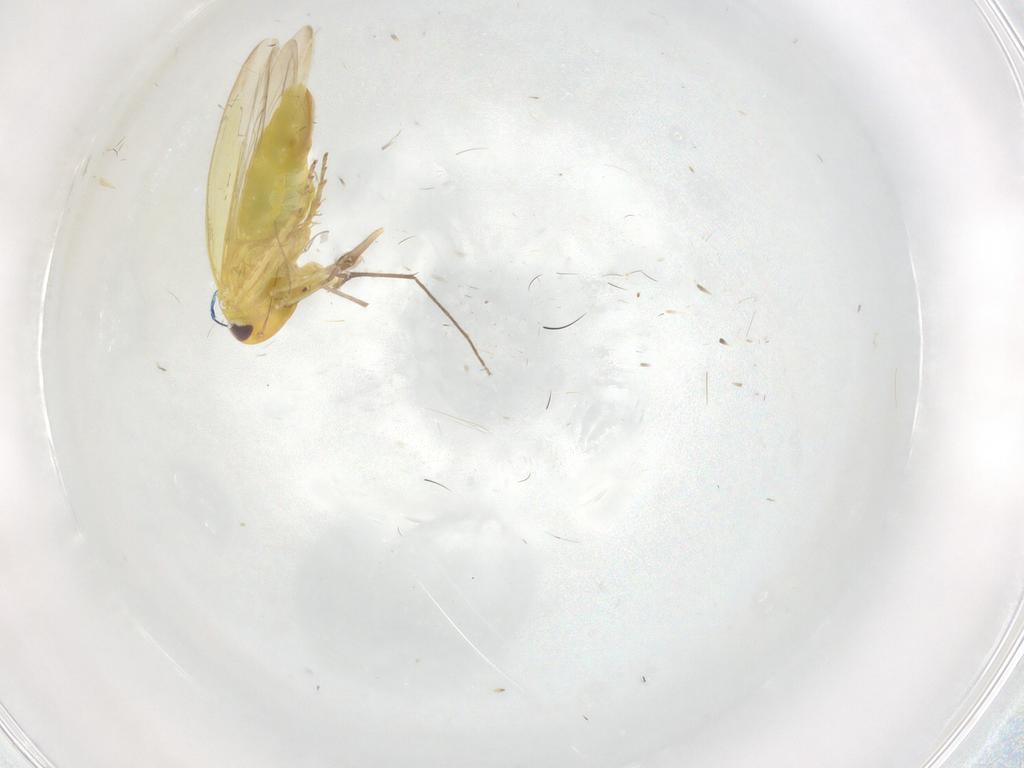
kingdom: Animalia
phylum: Arthropoda
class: Insecta
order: Hemiptera
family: Cicadellidae
